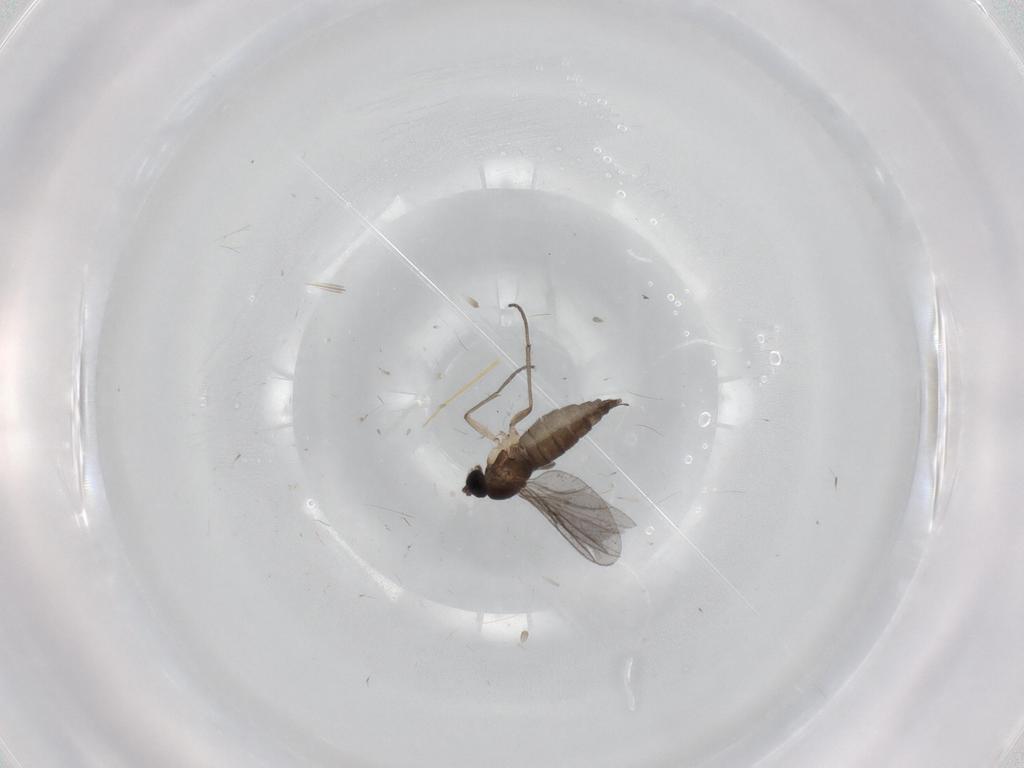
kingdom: Animalia
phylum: Arthropoda
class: Insecta
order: Diptera
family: Sciaridae
